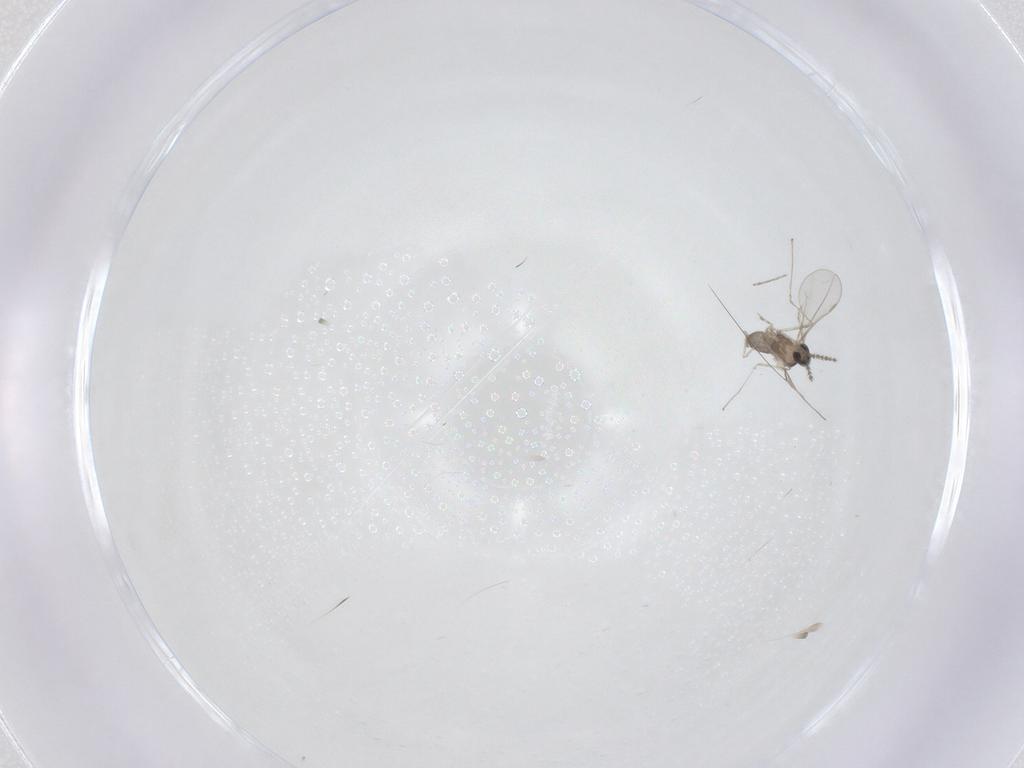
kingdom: Animalia
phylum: Arthropoda
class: Insecta
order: Diptera
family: Cecidomyiidae
